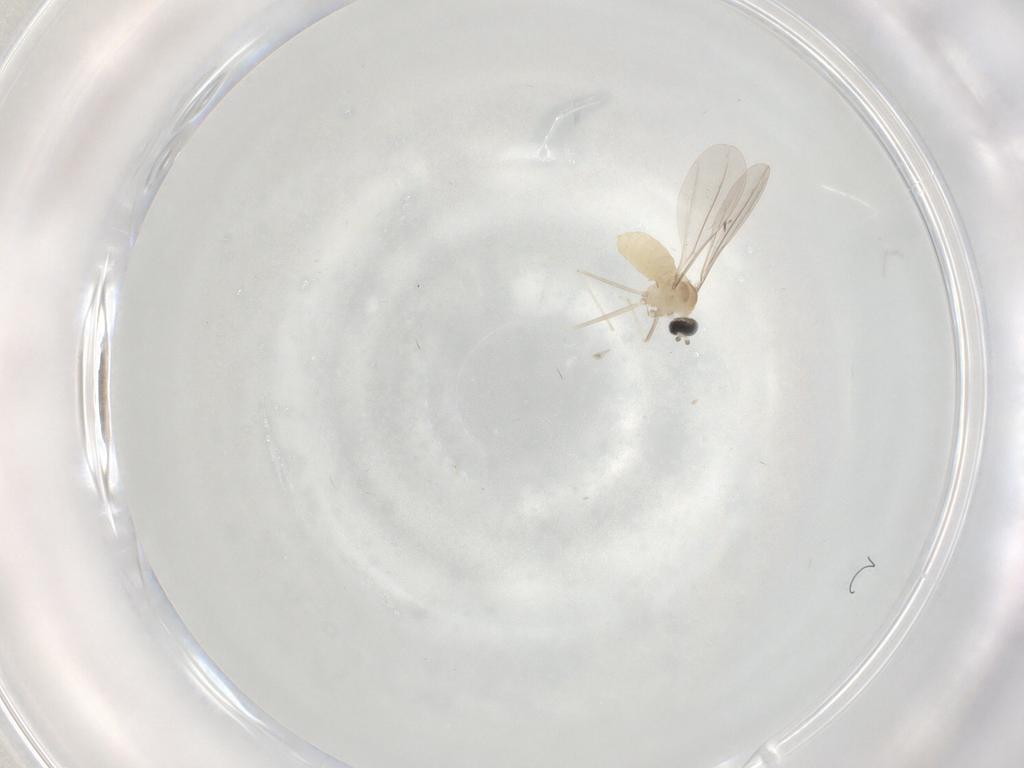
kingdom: Animalia
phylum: Arthropoda
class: Insecta
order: Diptera
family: Cecidomyiidae
